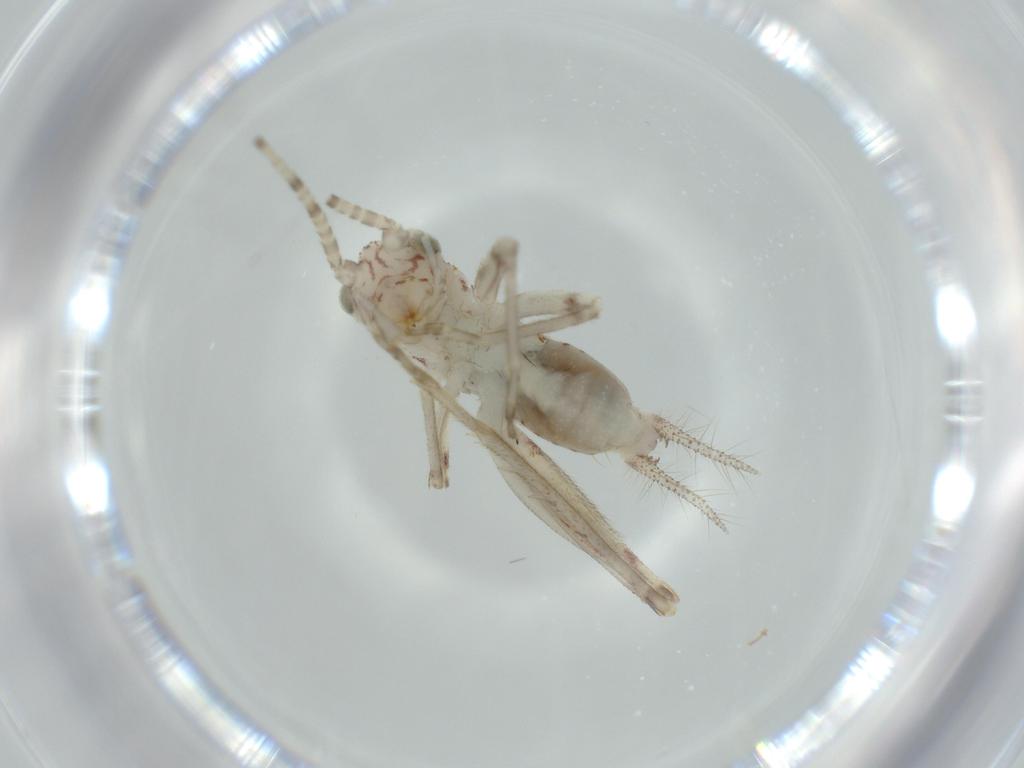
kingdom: Animalia
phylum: Arthropoda
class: Insecta
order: Orthoptera
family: Trigonidiidae
